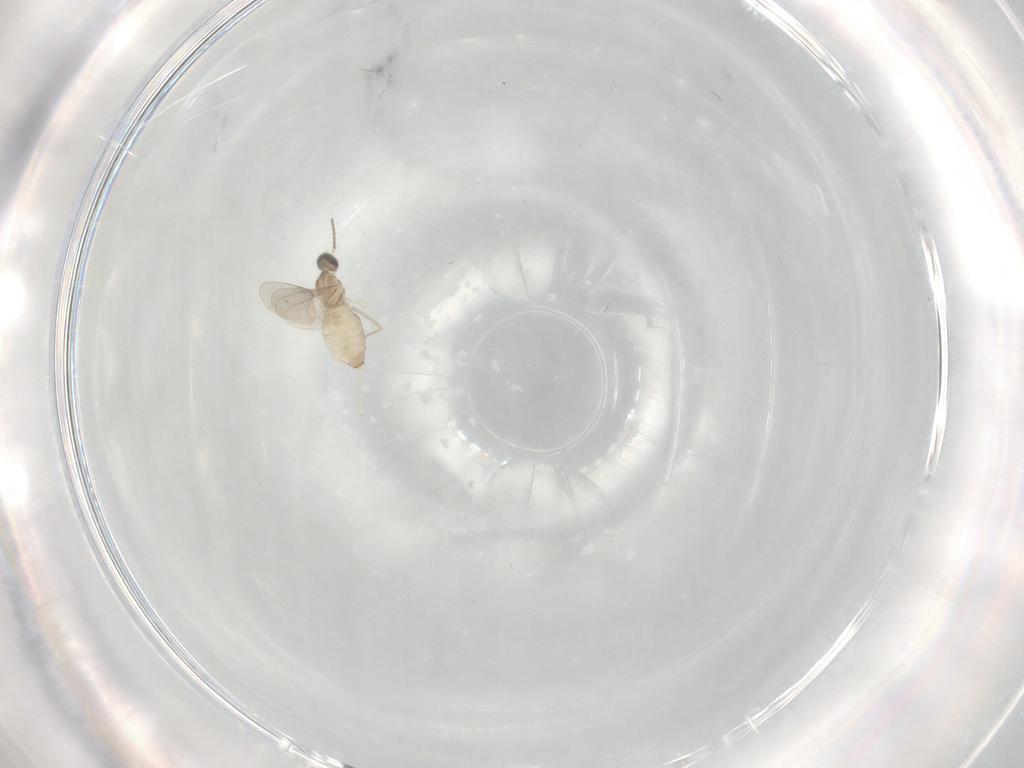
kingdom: Animalia
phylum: Arthropoda
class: Insecta
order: Diptera
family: Cecidomyiidae
